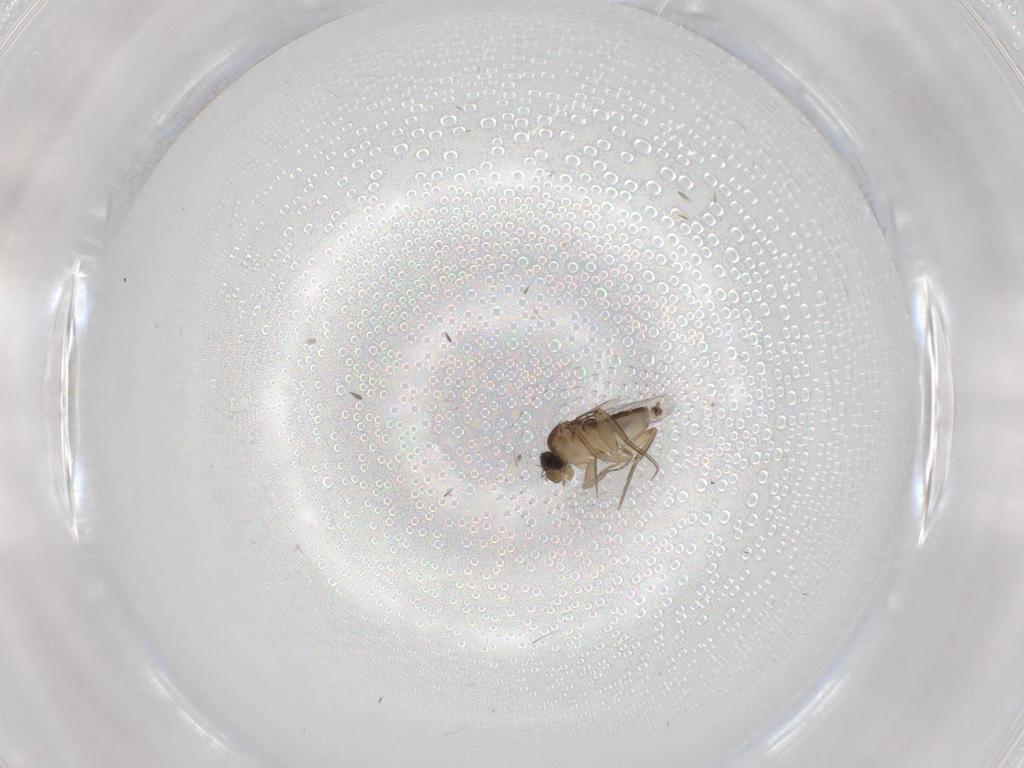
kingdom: Animalia
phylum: Arthropoda
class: Insecta
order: Diptera
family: Phoridae
